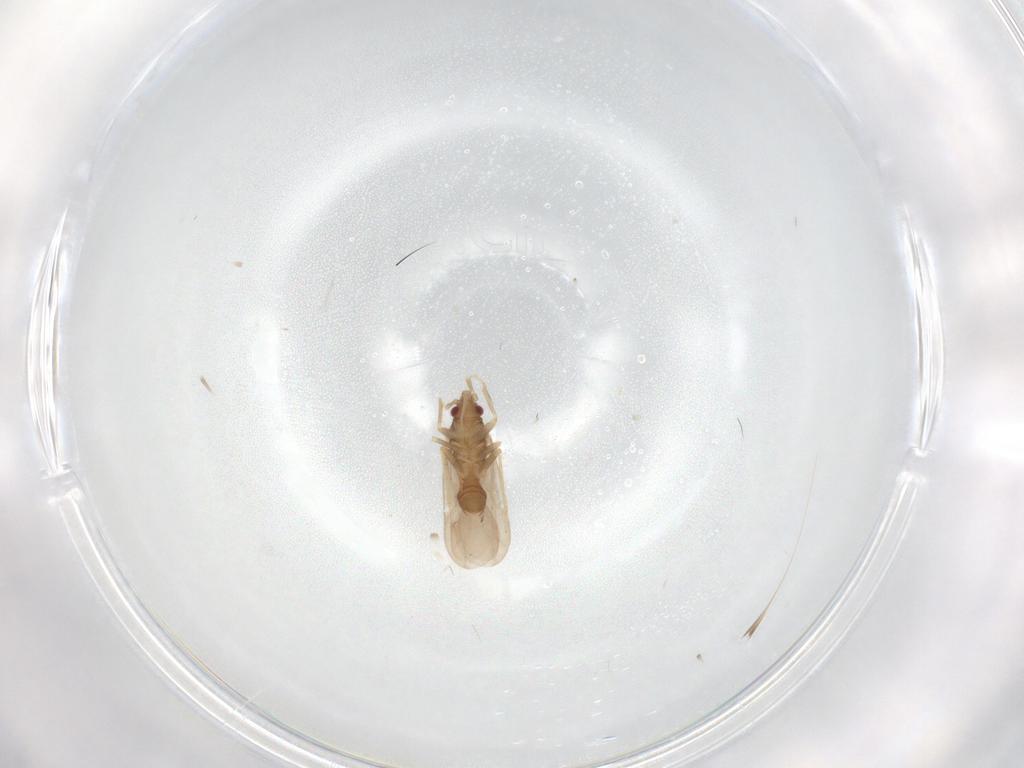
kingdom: Animalia
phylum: Arthropoda
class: Insecta
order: Hemiptera
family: Ceratocombidae
